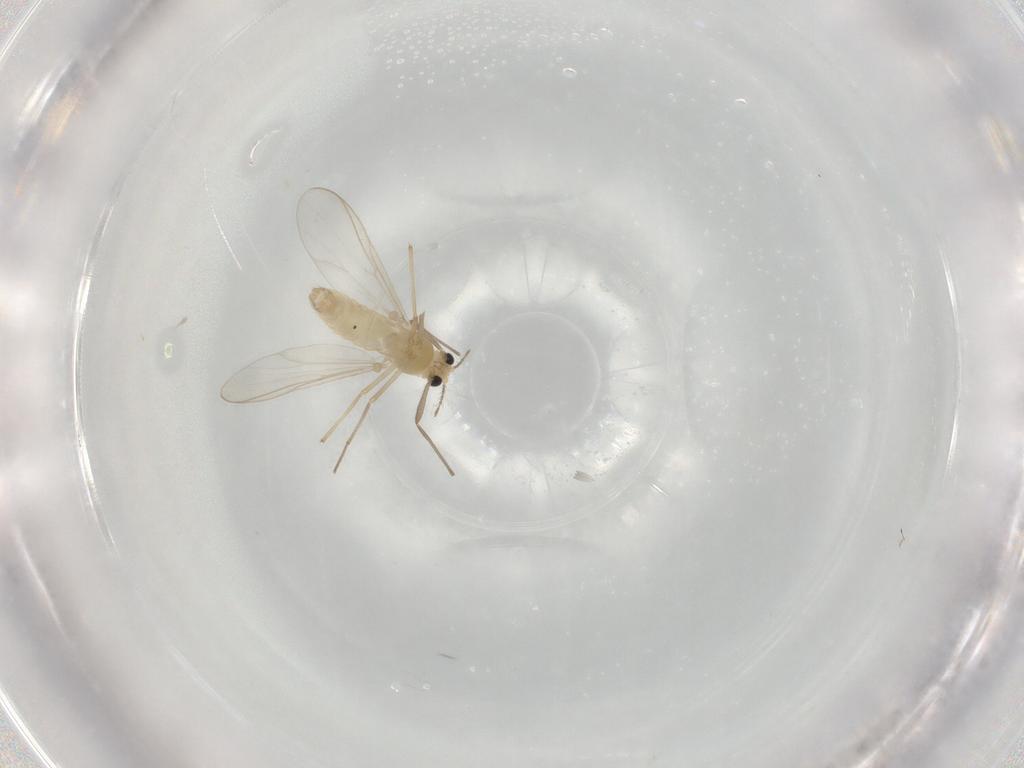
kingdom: Animalia
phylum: Arthropoda
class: Insecta
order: Diptera
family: Chironomidae
